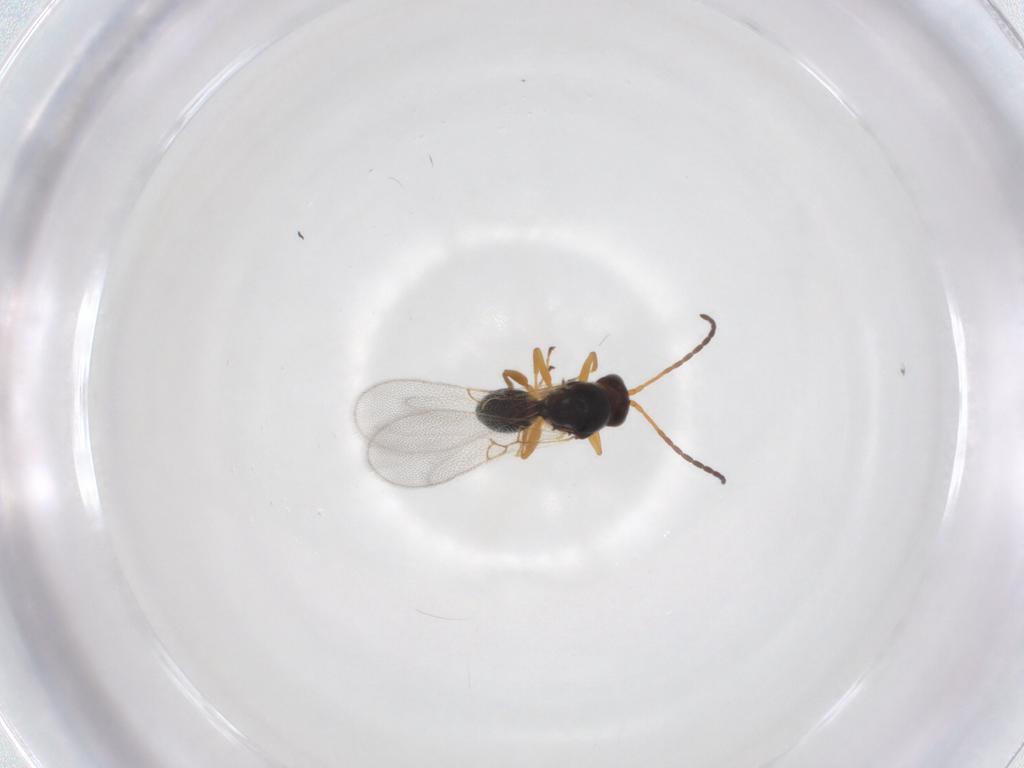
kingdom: Animalia
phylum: Arthropoda
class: Insecta
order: Hymenoptera
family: Figitidae
